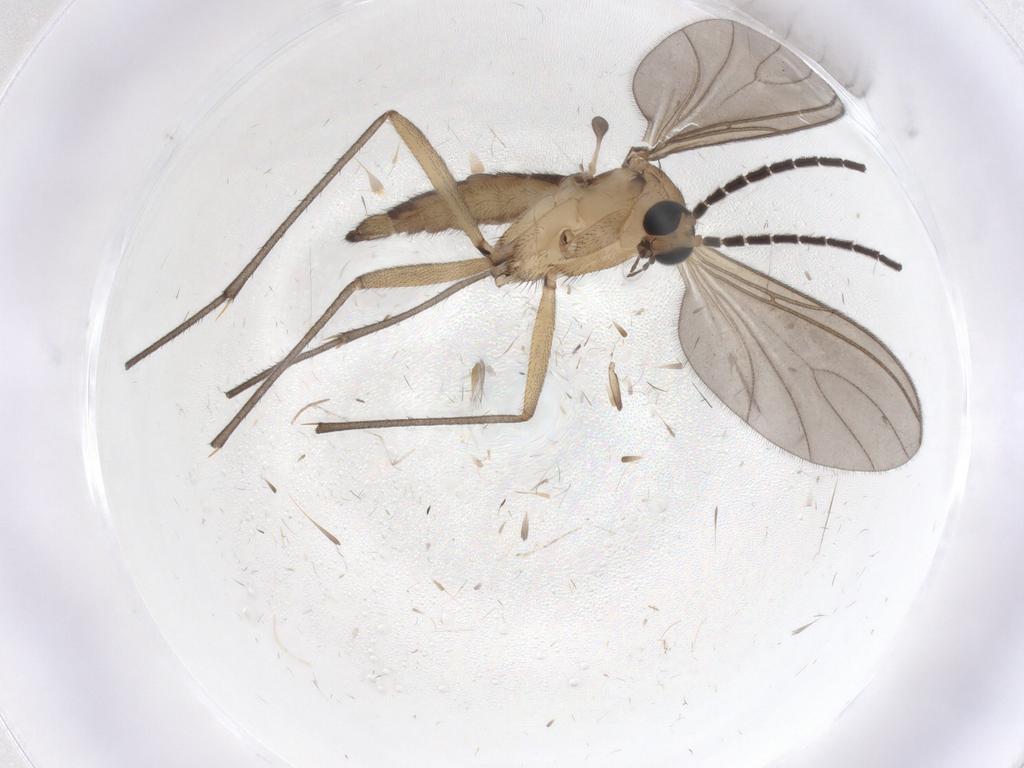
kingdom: Animalia
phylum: Arthropoda
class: Insecta
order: Diptera
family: Sciaridae
